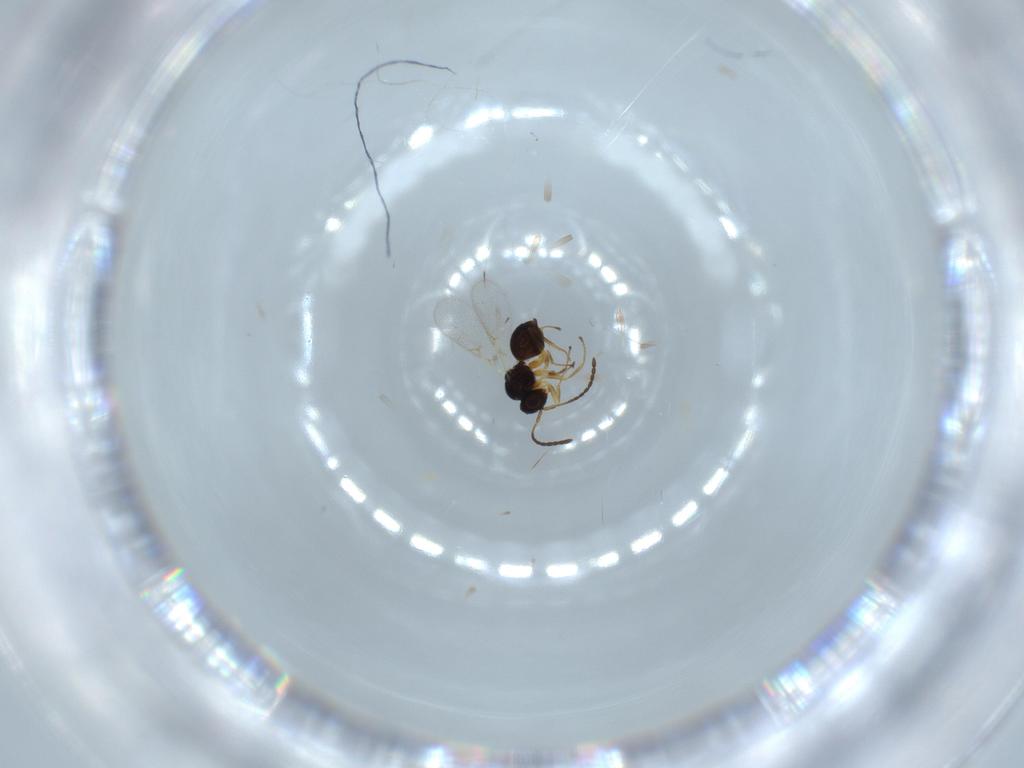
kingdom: Animalia
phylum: Arthropoda
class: Insecta
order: Hymenoptera
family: Figitidae
